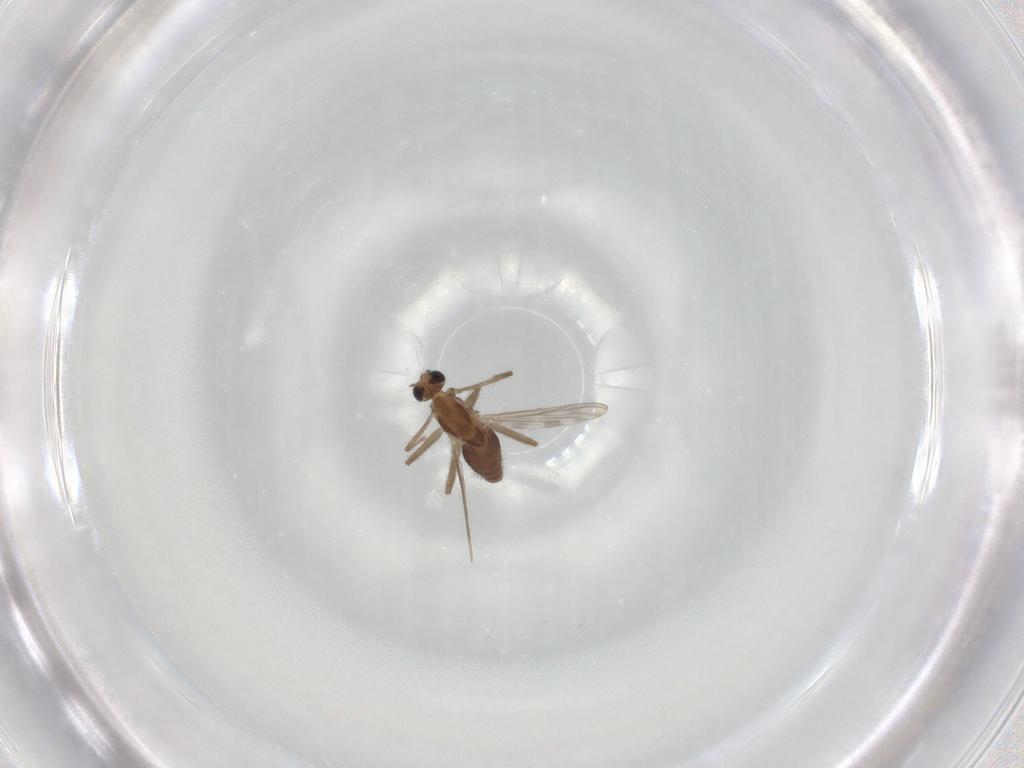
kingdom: Animalia
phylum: Arthropoda
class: Insecta
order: Diptera
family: Chironomidae
